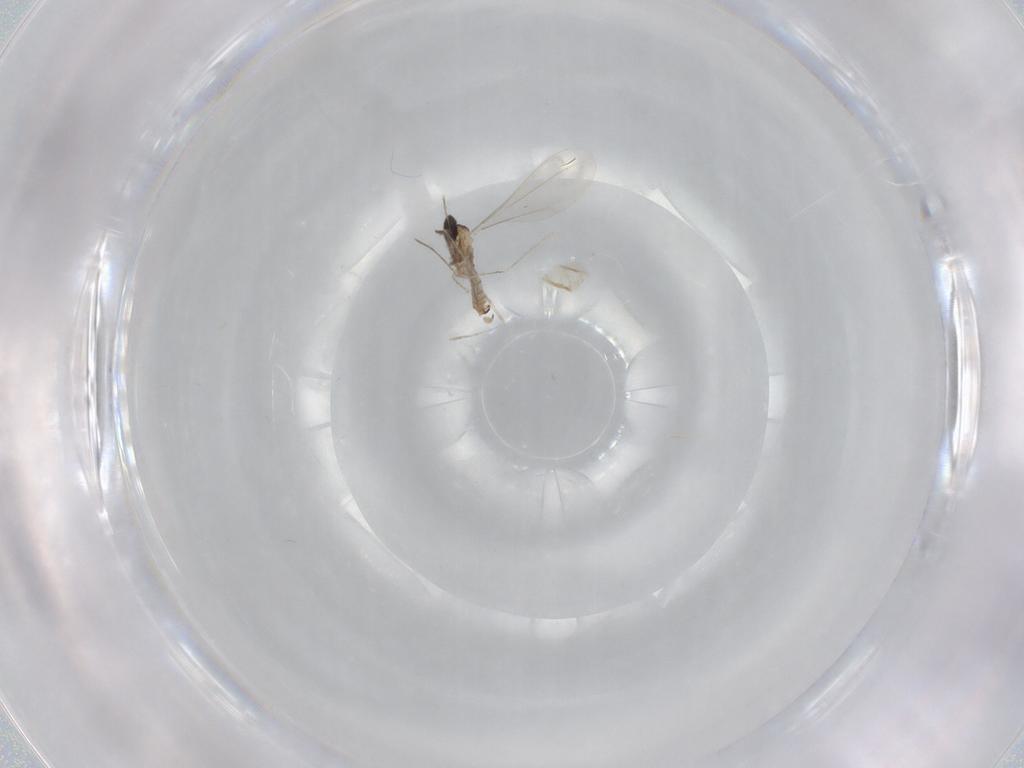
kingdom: Animalia
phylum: Arthropoda
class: Insecta
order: Diptera
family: Cecidomyiidae
